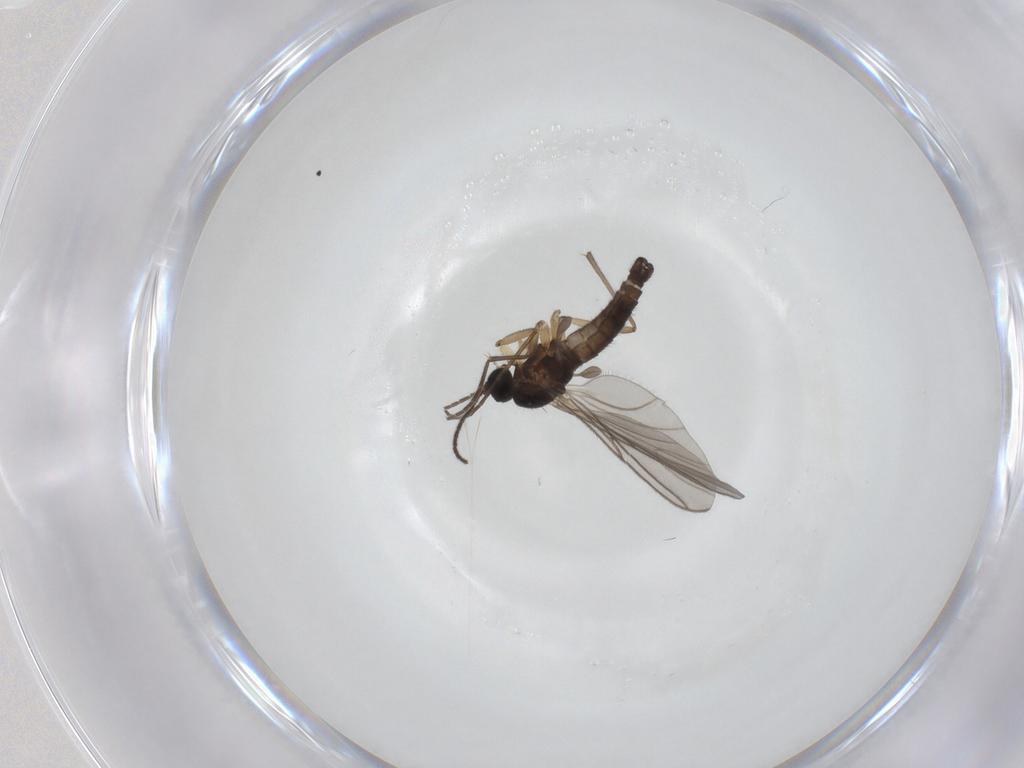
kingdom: Animalia
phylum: Arthropoda
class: Insecta
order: Diptera
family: Sciaridae
